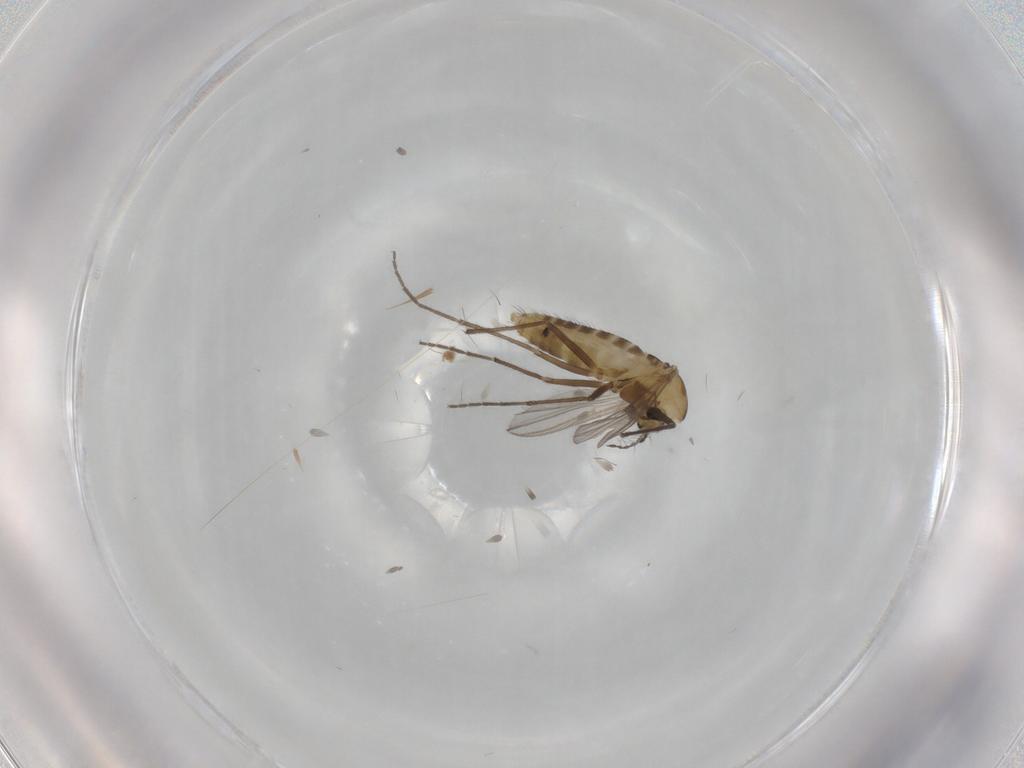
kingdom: Animalia
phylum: Arthropoda
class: Insecta
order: Diptera
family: Chironomidae
